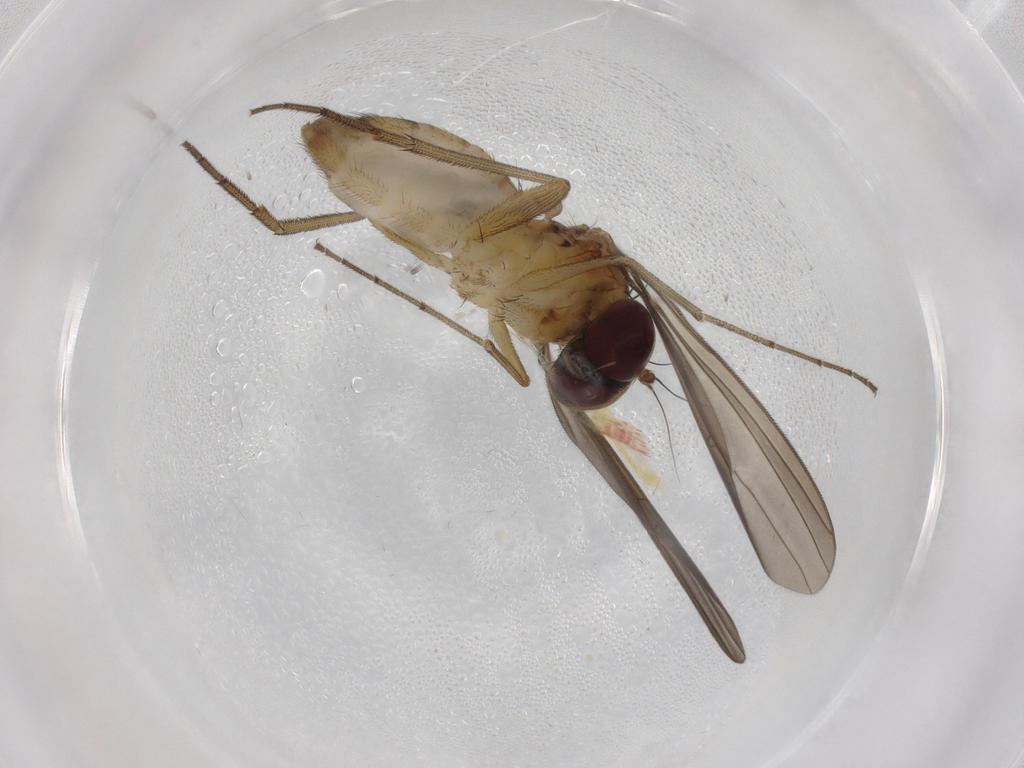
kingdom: Animalia
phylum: Arthropoda
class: Insecta
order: Diptera
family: Dolichopodidae
